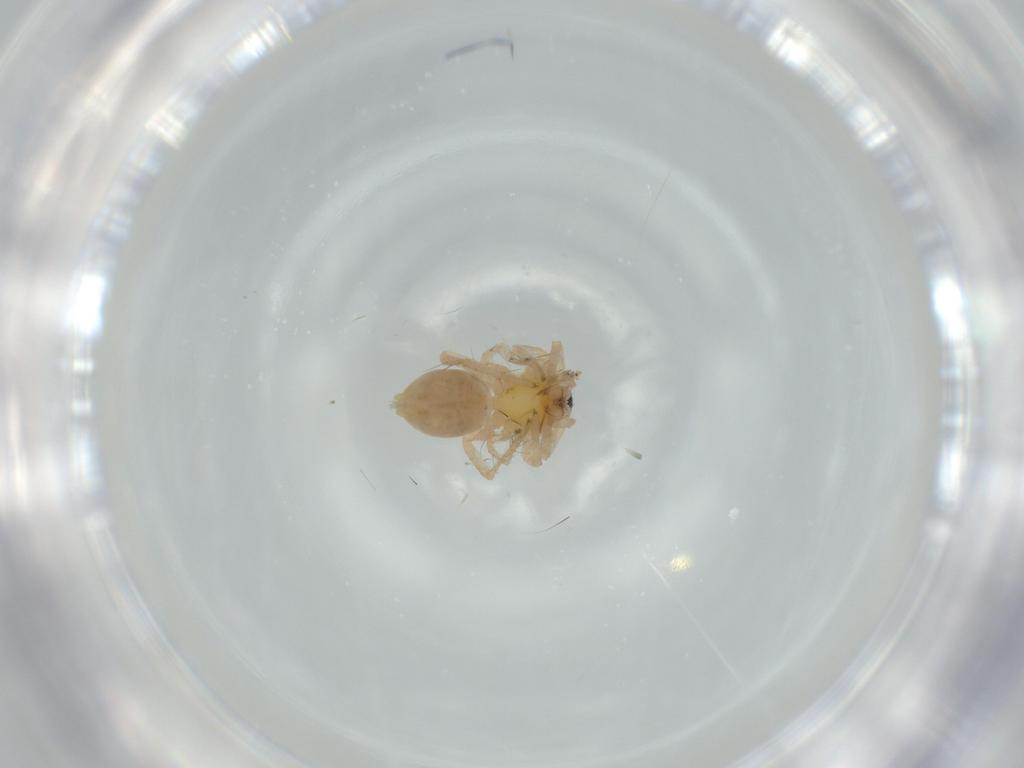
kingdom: Animalia
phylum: Arthropoda
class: Arachnida
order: Araneae
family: Anyphaenidae
